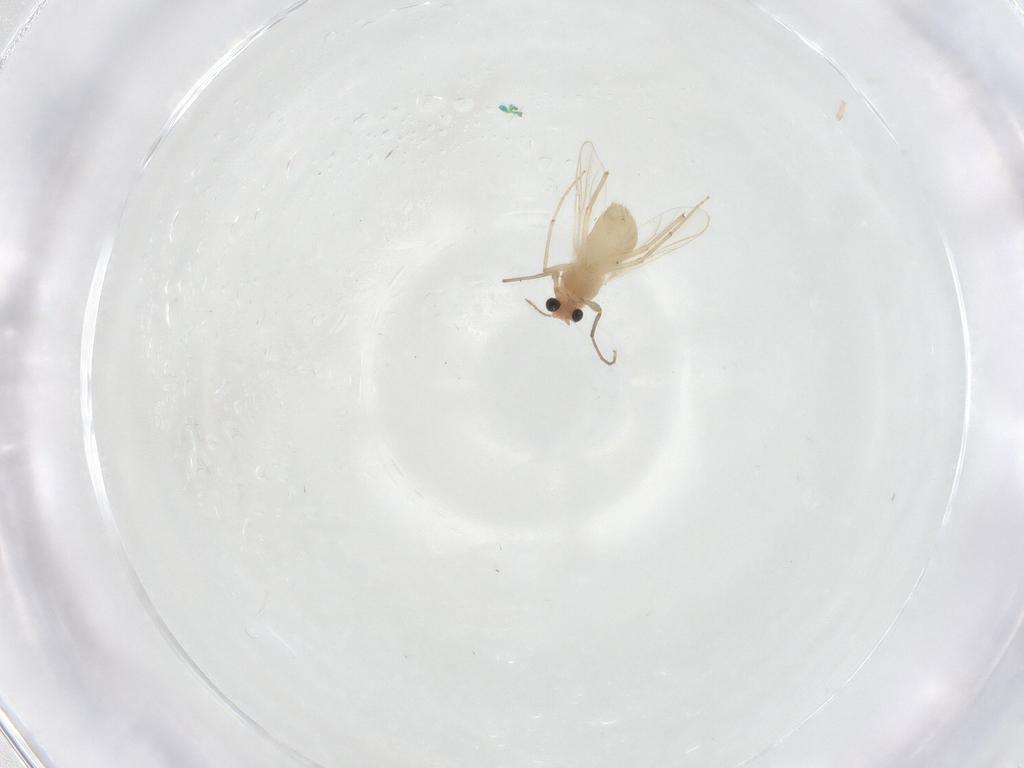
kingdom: Animalia
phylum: Arthropoda
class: Insecta
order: Diptera
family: Chironomidae
